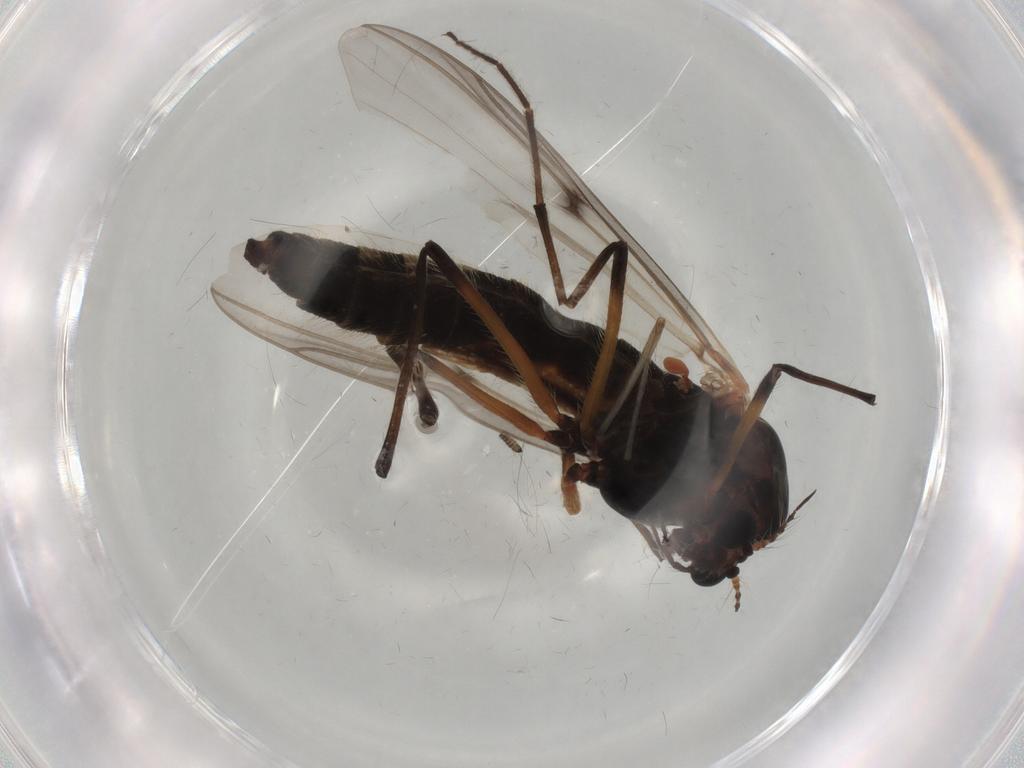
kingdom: Animalia
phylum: Arthropoda
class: Insecta
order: Diptera
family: Chironomidae
